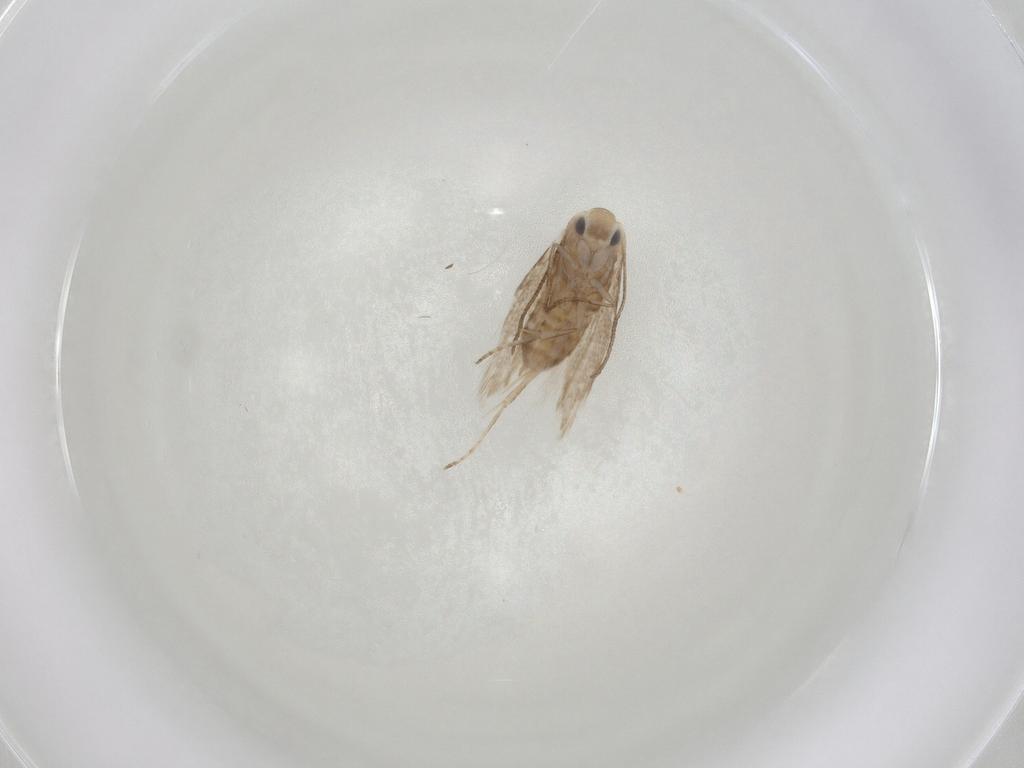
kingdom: Animalia
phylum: Arthropoda
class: Insecta
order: Lepidoptera
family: Depressariidae
